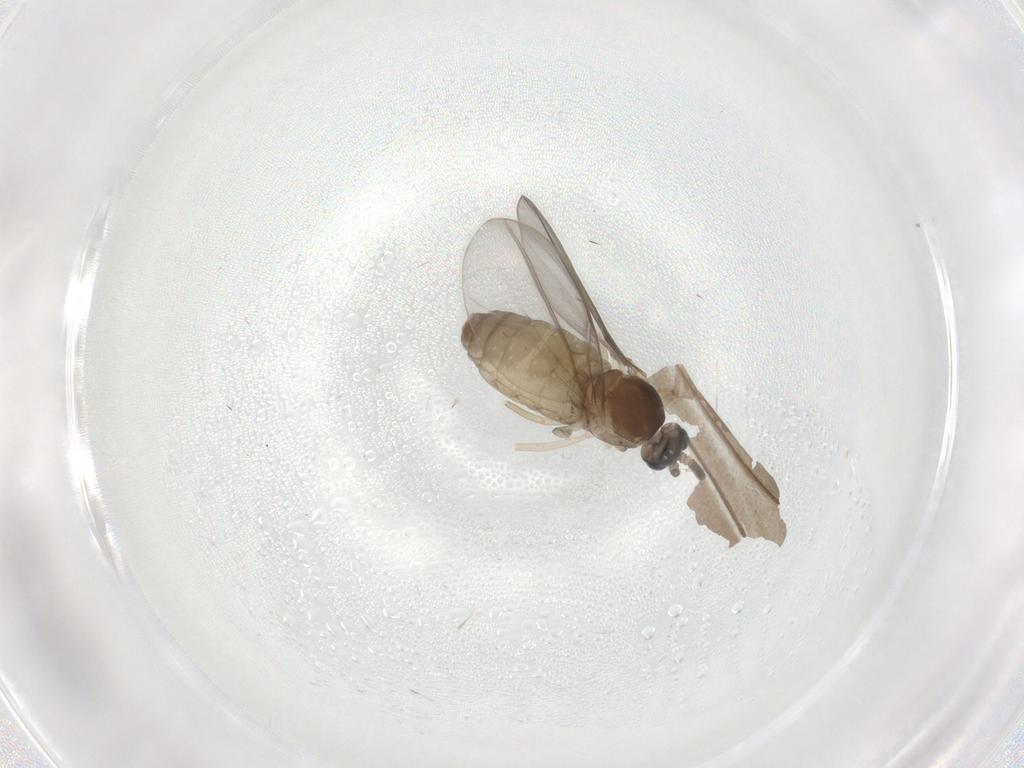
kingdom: Animalia
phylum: Arthropoda
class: Insecta
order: Diptera
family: Cecidomyiidae
